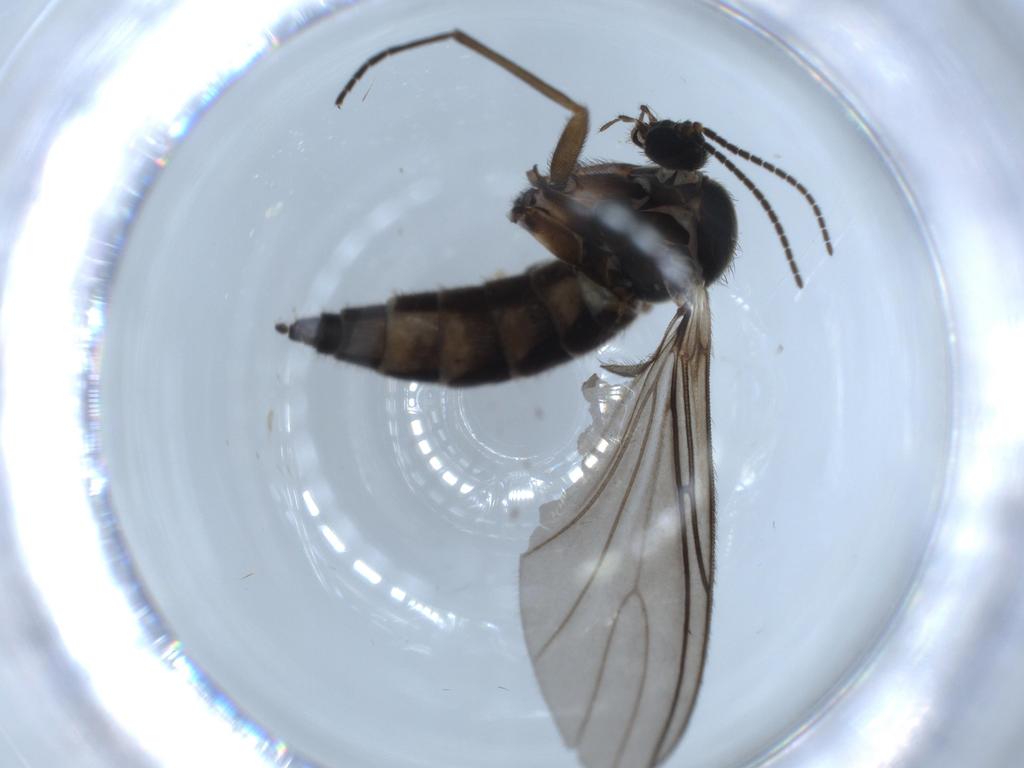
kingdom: Animalia
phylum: Arthropoda
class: Insecta
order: Diptera
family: Sciaridae
